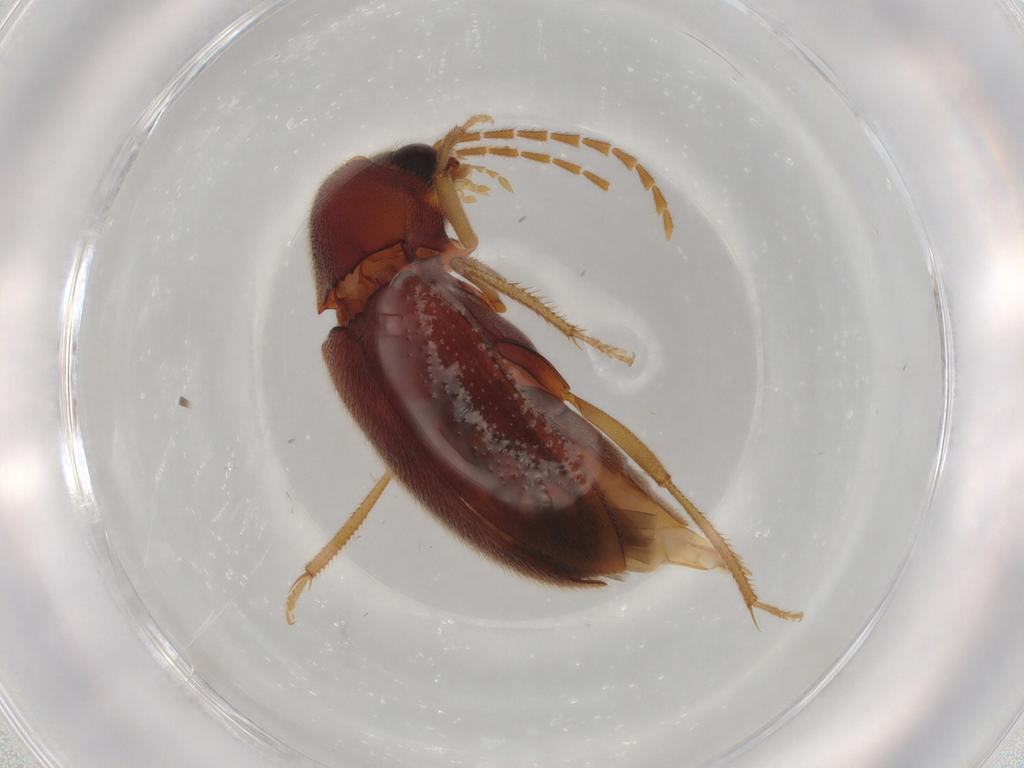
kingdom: Animalia
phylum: Arthropoda
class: Insecta
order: Coleoptera
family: Ptilodactylidae
